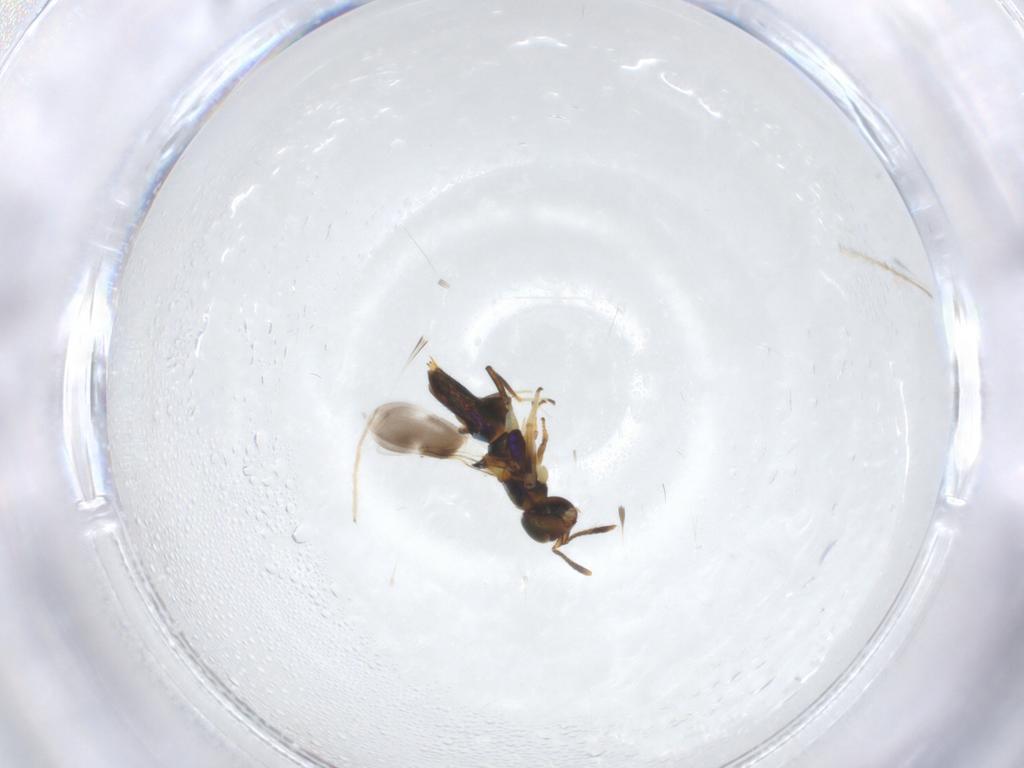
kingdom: Animalia
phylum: Arthropoda
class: Insecta
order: Hymenoptera
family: Encyrtidae
